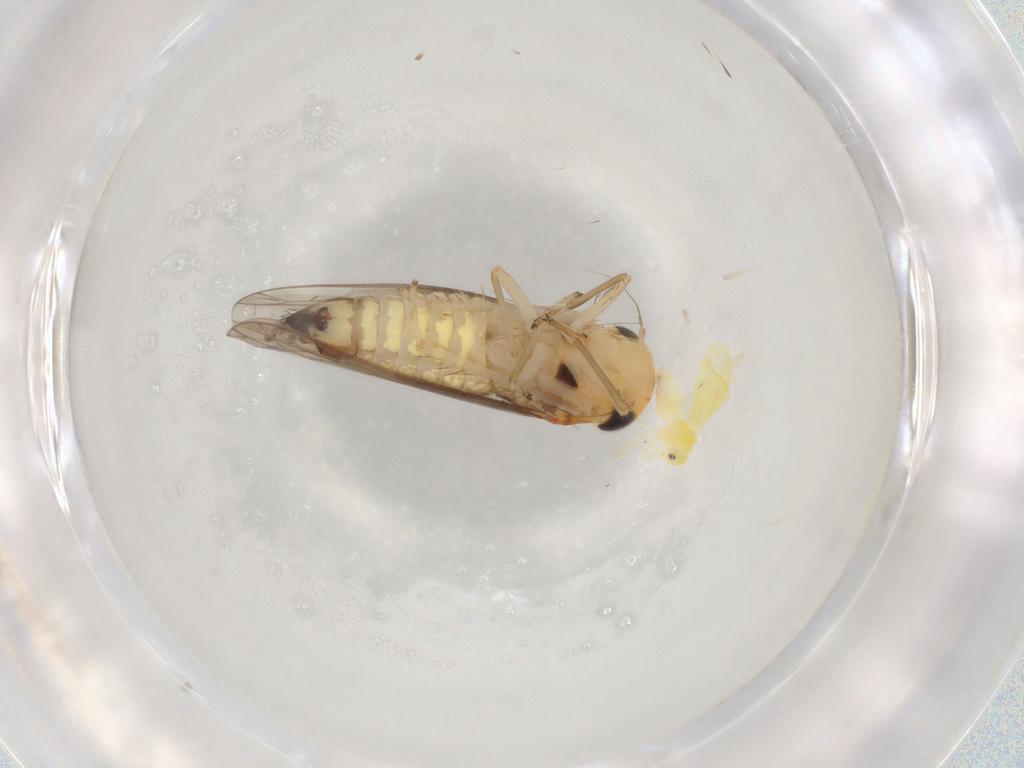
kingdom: Animalia
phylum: Arthropoda
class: Insecta
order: Hemiptera
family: Cicadellidae
